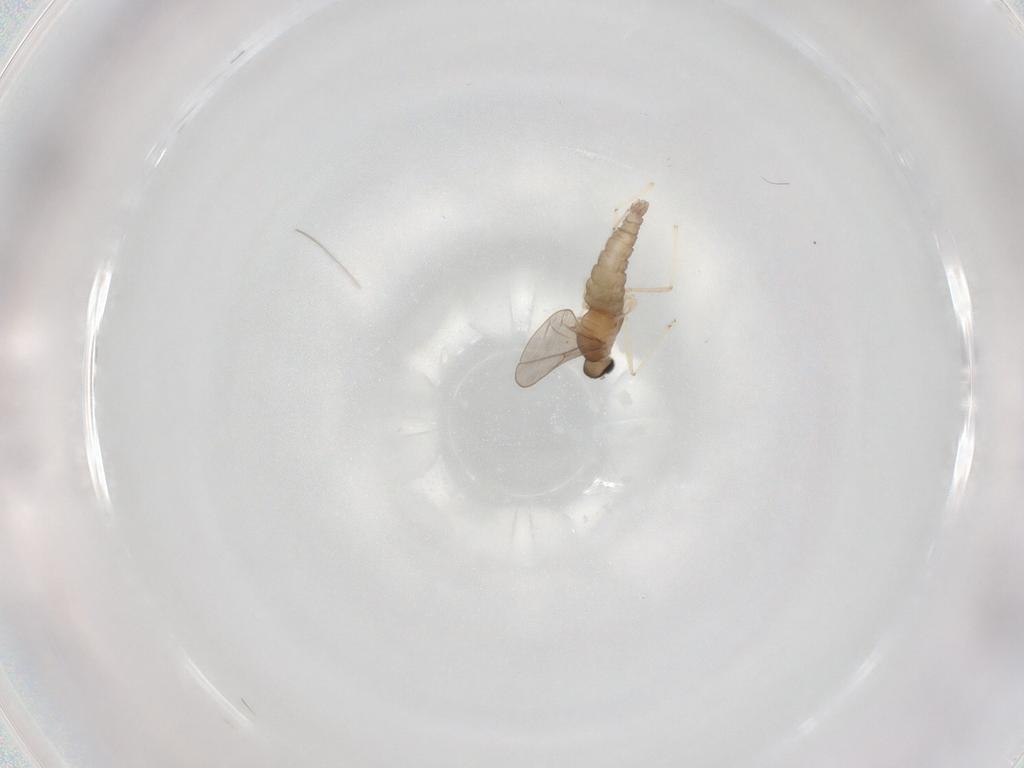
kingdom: Animalia
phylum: Arthropoda
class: Insecta
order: Diptera
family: Cecidomyiidae
